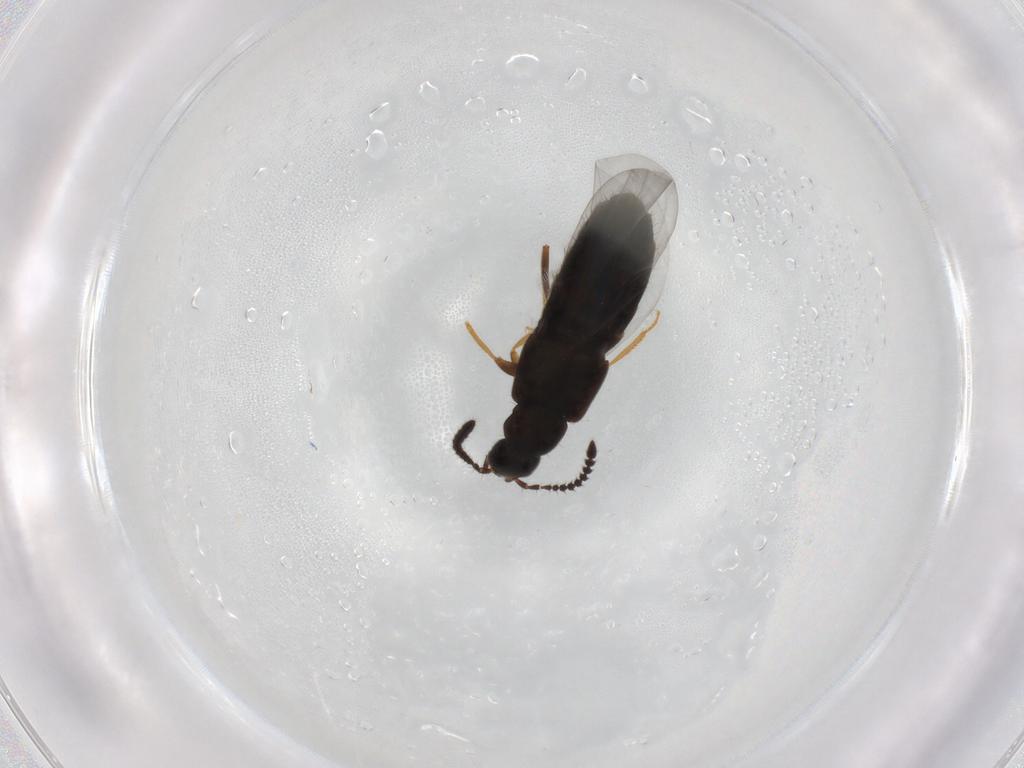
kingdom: Animalia
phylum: Arthropoda
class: Insecta
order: Coleoptera
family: Staphylinidae
